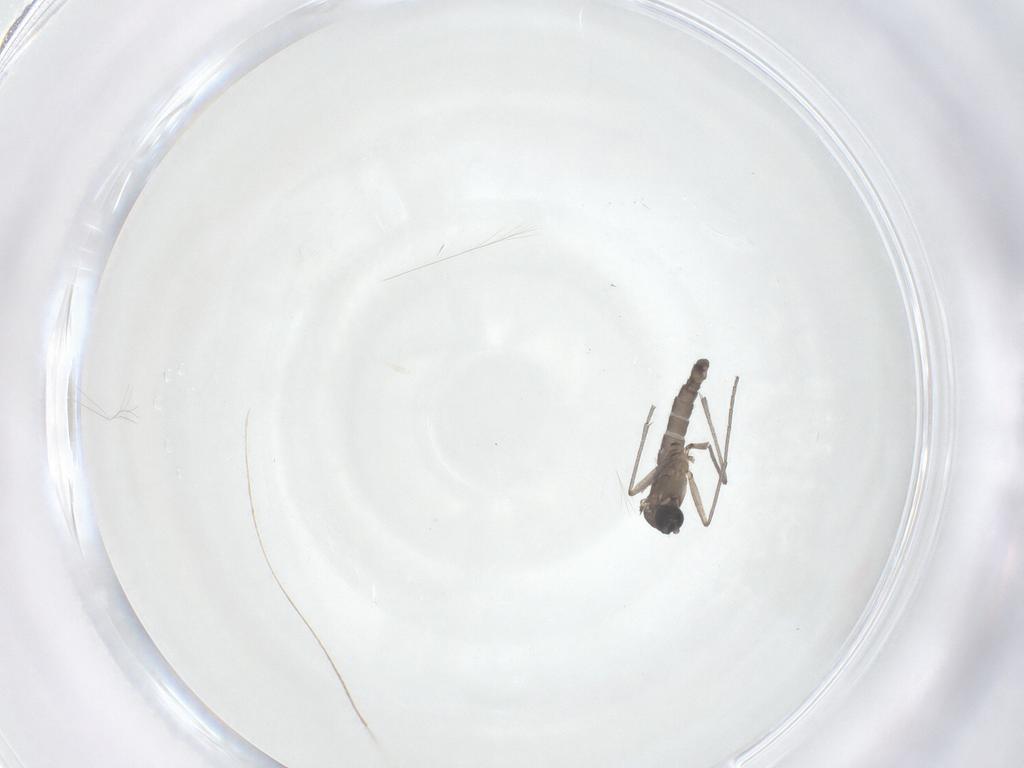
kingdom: Animalia
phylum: Arthropoda
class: Insecta
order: Diptera
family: Sciaridae
